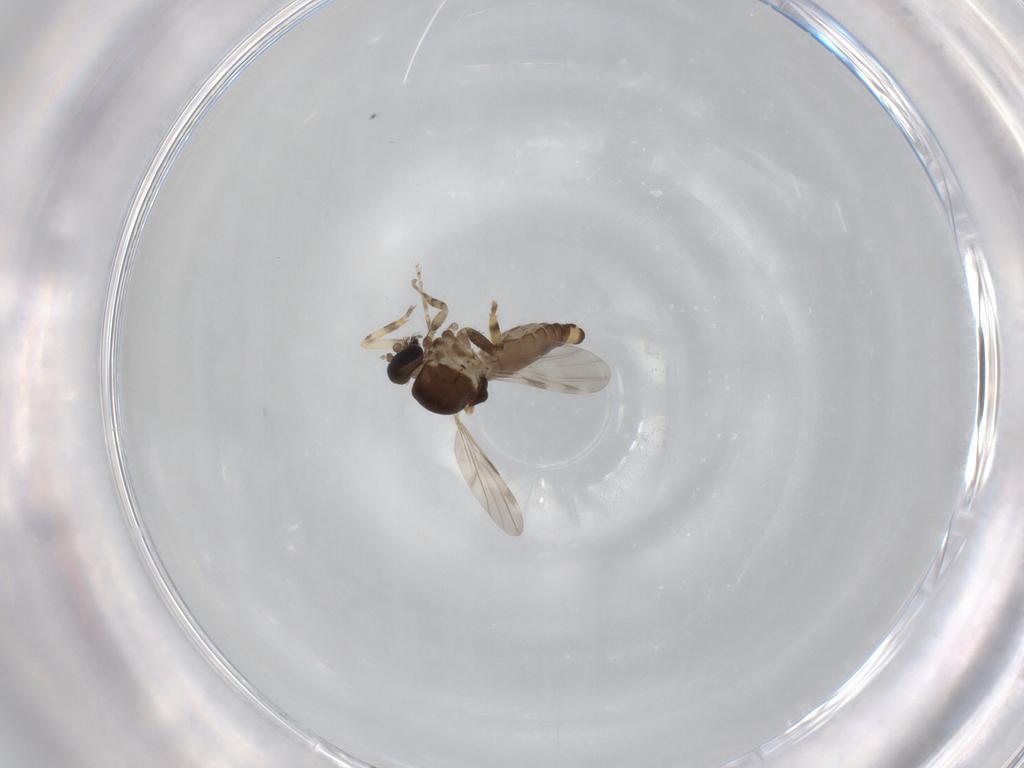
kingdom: Animalia
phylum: Arthropoda
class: Insecta
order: Diptera
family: Ceratopogonidae
